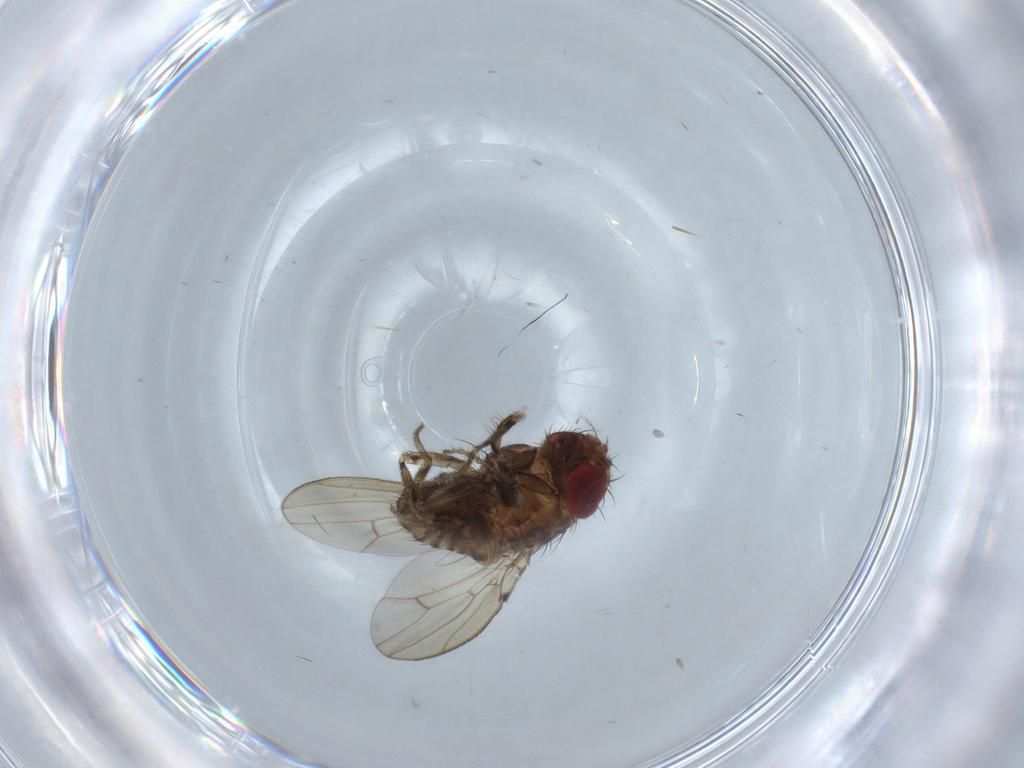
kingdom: Animalia
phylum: Arthropoda
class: Insecta
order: Diptera
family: Drosophilidae
